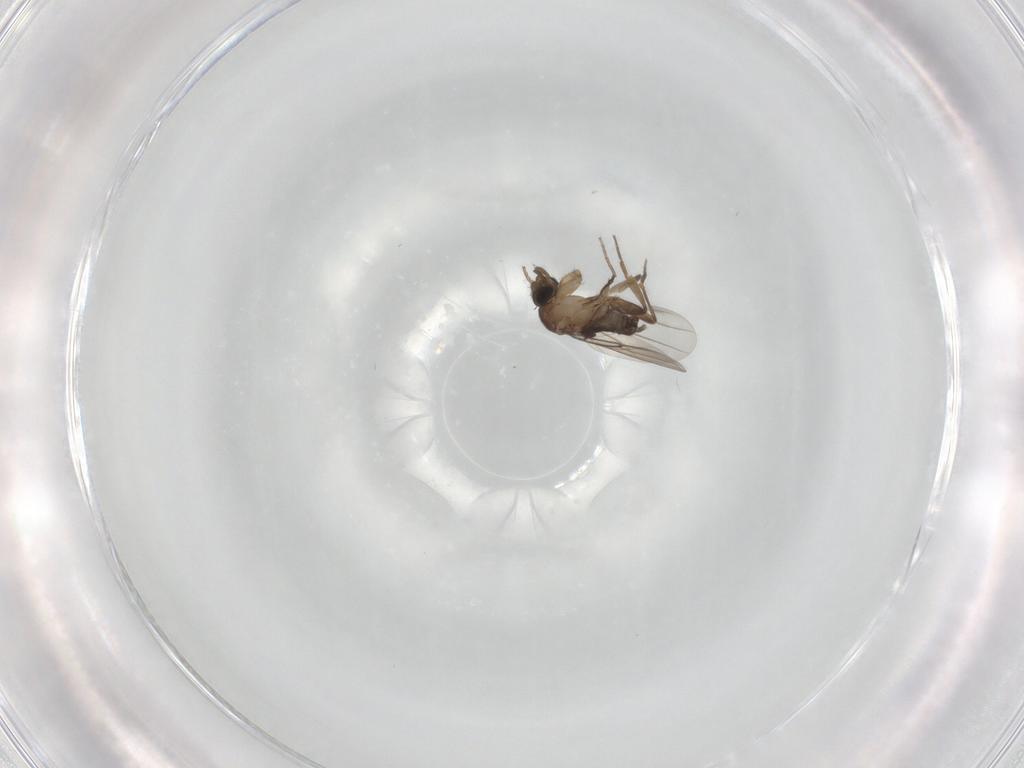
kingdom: Animalia
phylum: Arthropoda
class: Insecta
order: Diptera
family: Phoridae
